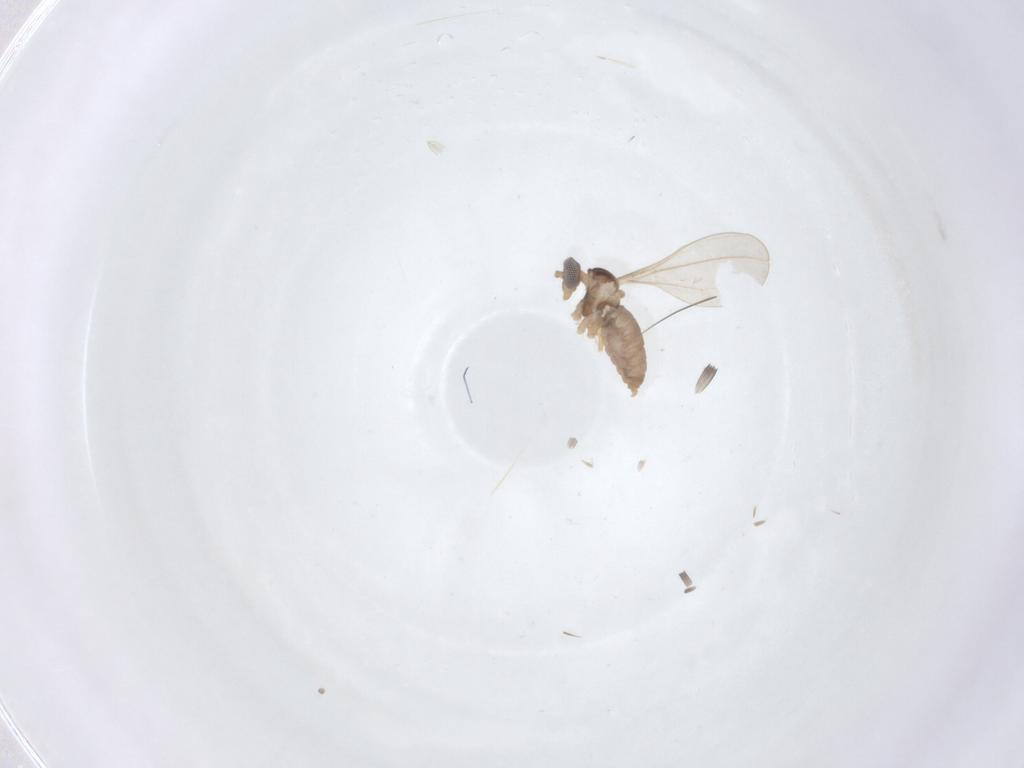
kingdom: Animalia
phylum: Arthropoda
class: Insecta
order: Diptera
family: Cecidomyiidae
